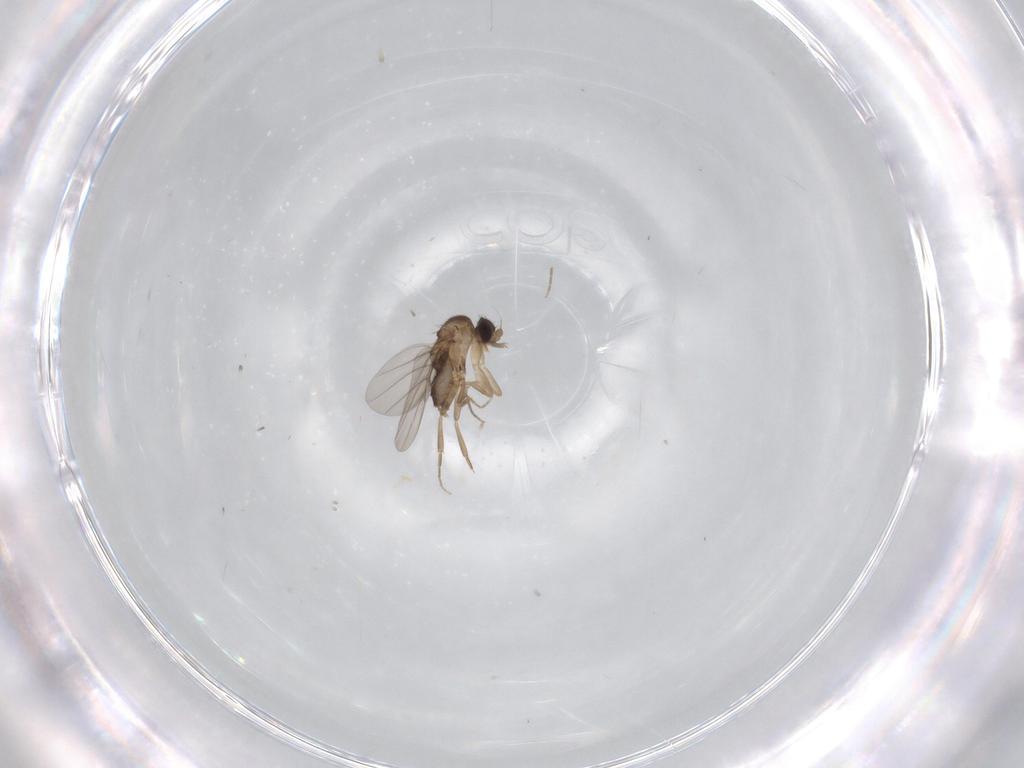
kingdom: Animalia
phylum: Arthropoda
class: Insecta
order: Diptera
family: Phoridae
